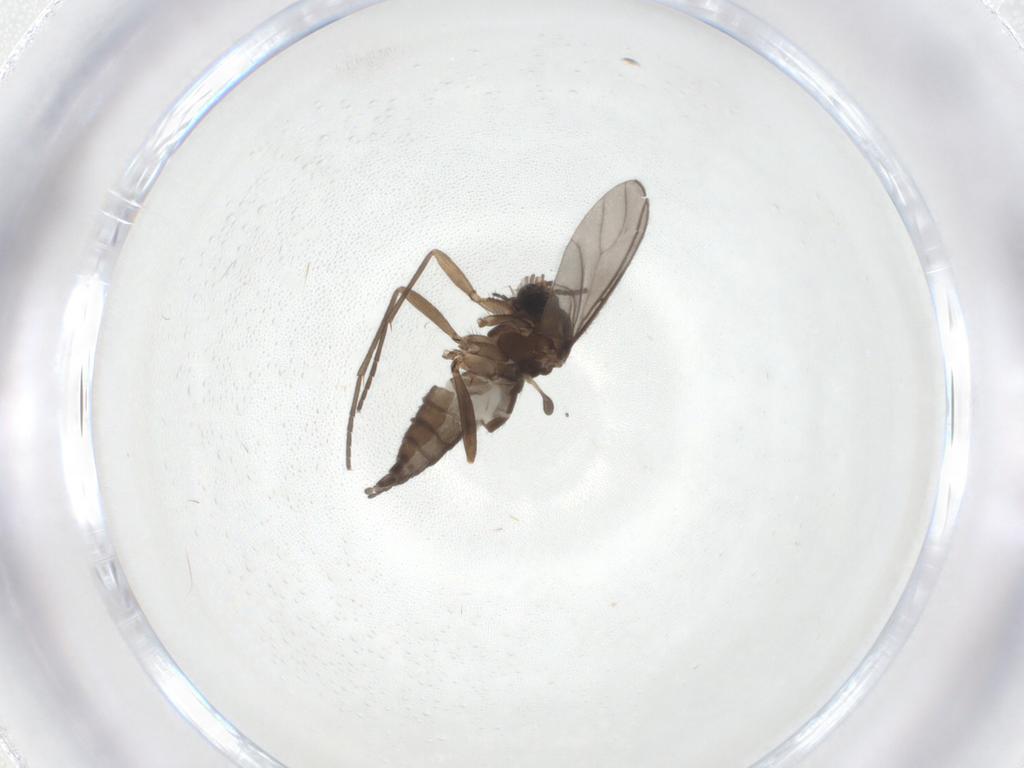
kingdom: Animalia
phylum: Arthropoda
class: Insecta
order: Diptera
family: Sciaridae
